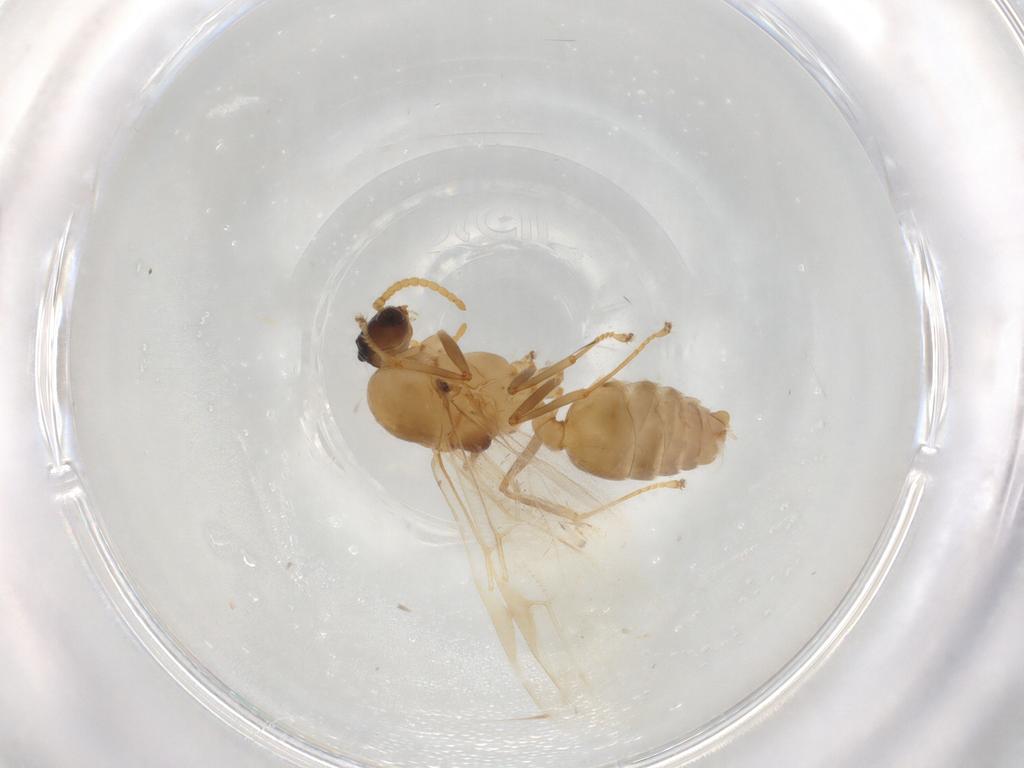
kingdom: Animalia
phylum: Arthropoda
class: Insecta
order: Hymenoptera
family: Formicidae
